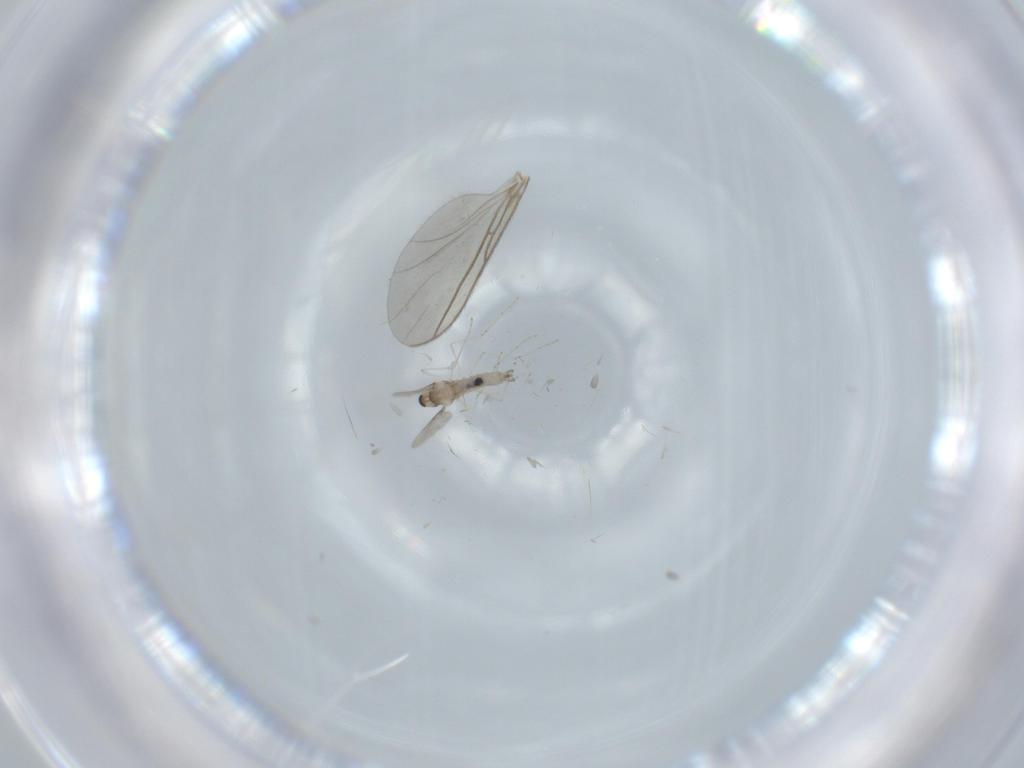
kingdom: Animalia
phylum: Arthropoda
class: Insecta
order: Diptera
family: Cecidomyiidae
